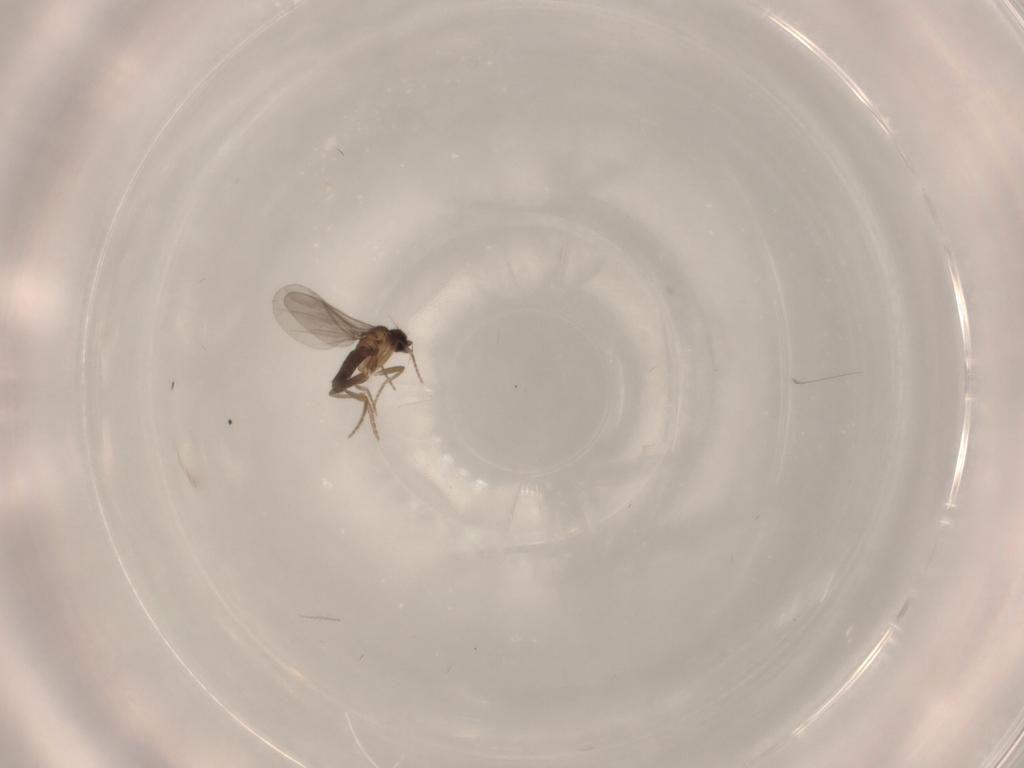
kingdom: Animalia
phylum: Arthropoda
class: Insecta
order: Diptera
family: Phoridae
